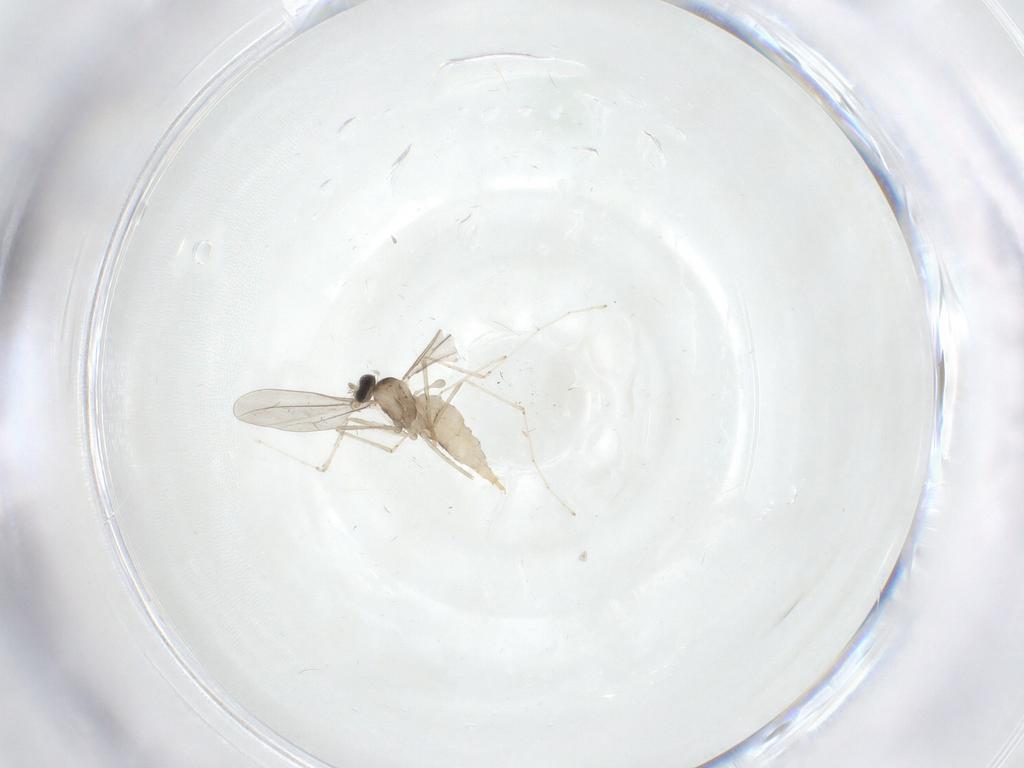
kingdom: Animalia
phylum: Arthropoda
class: Insecta
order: Diptera
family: Cecidomyiidae
